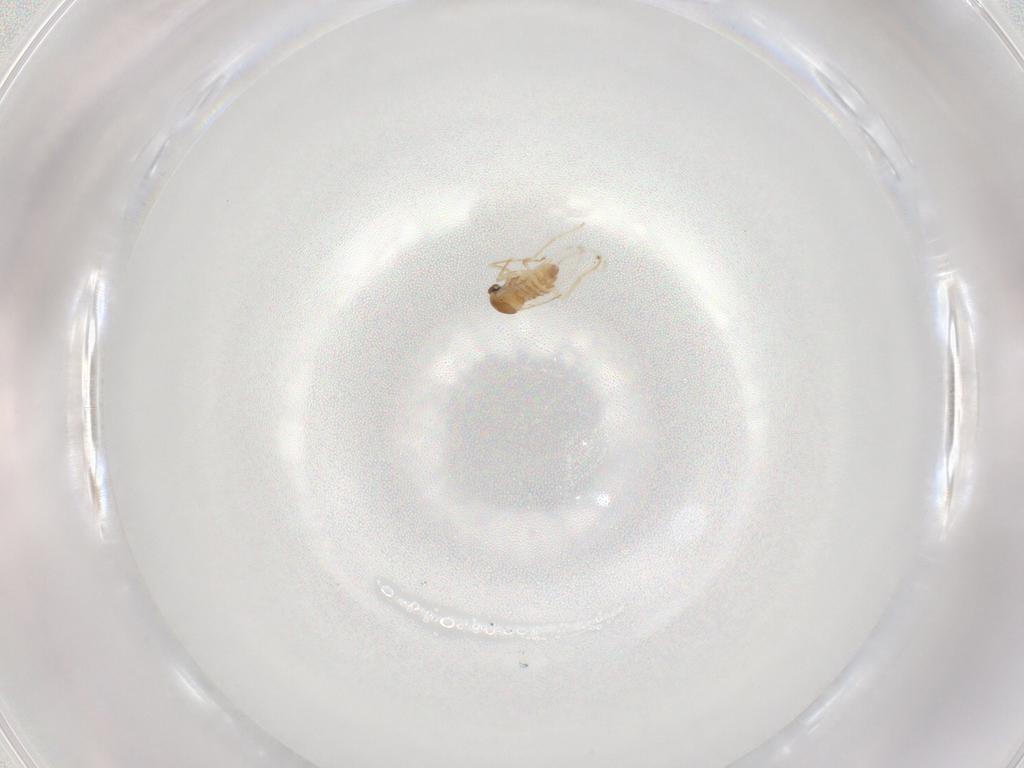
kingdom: Animalia
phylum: Arthropoda
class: Insecta
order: Diptera
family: Cecidomyiidae
